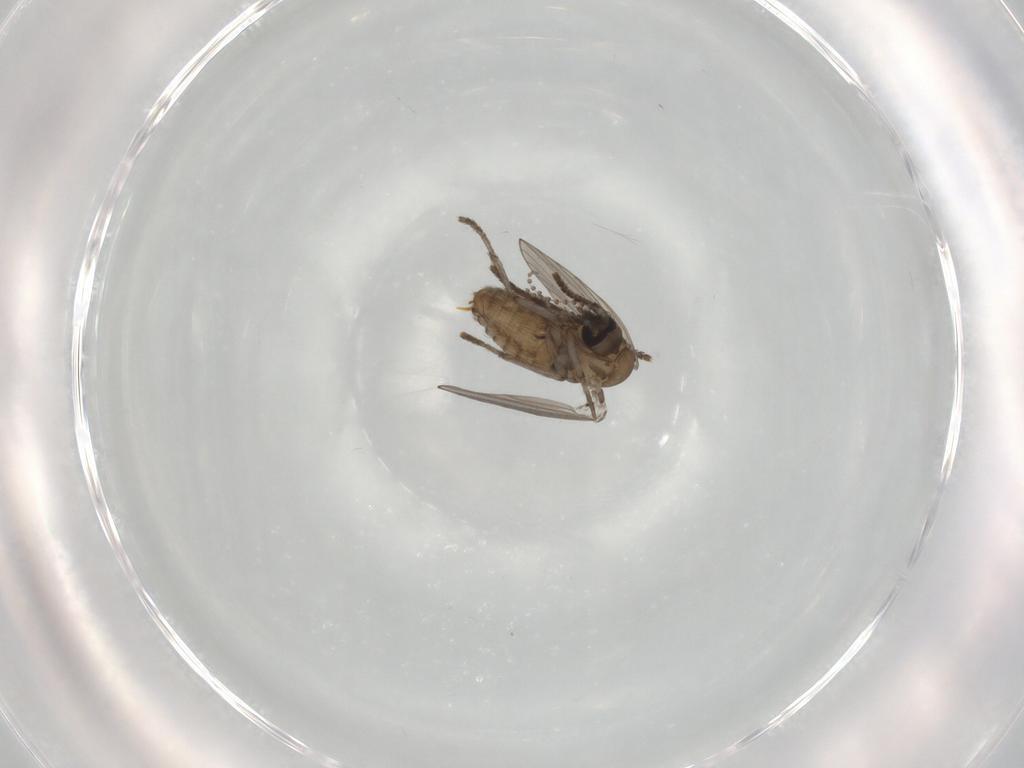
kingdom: Animalia
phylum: Arthropoda
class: Insecta
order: Diptera
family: Psychodidae
